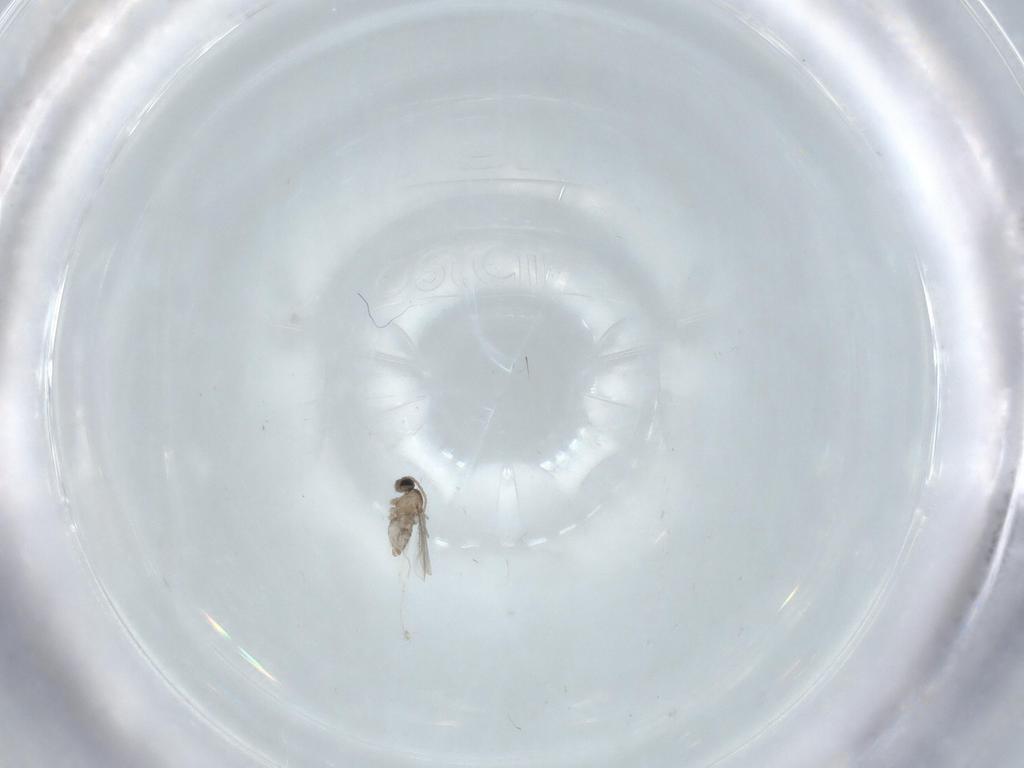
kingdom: Animalia
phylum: Arthropoda
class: Insecta
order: Diptera
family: Cecidomyiidae
